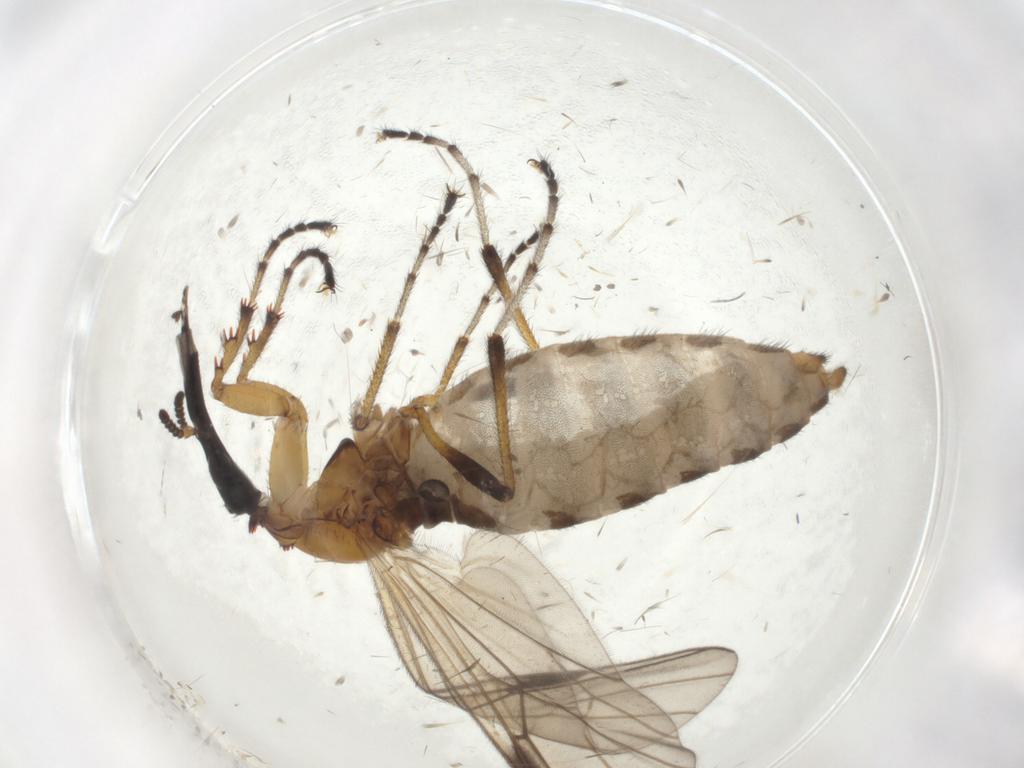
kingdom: Animalia
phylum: Arthropoda
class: Insecta
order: Diptera
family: Bibionidae
